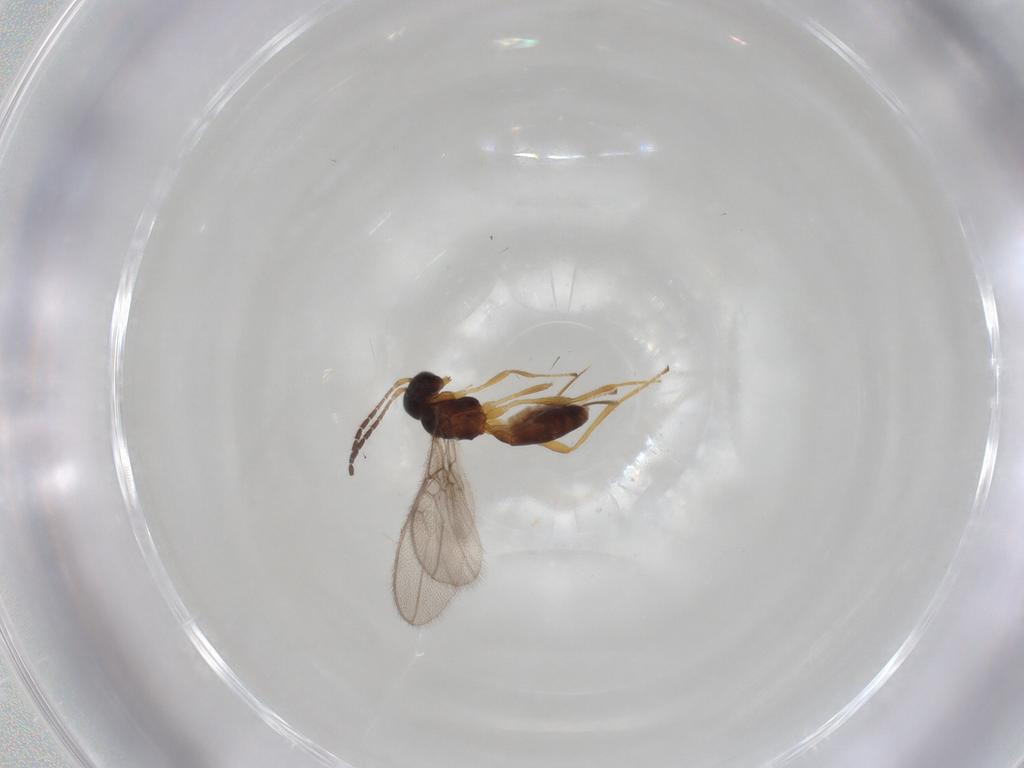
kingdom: Animalia
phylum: Arthropoda
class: Insecta
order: Hymenoptera
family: Braconidae
